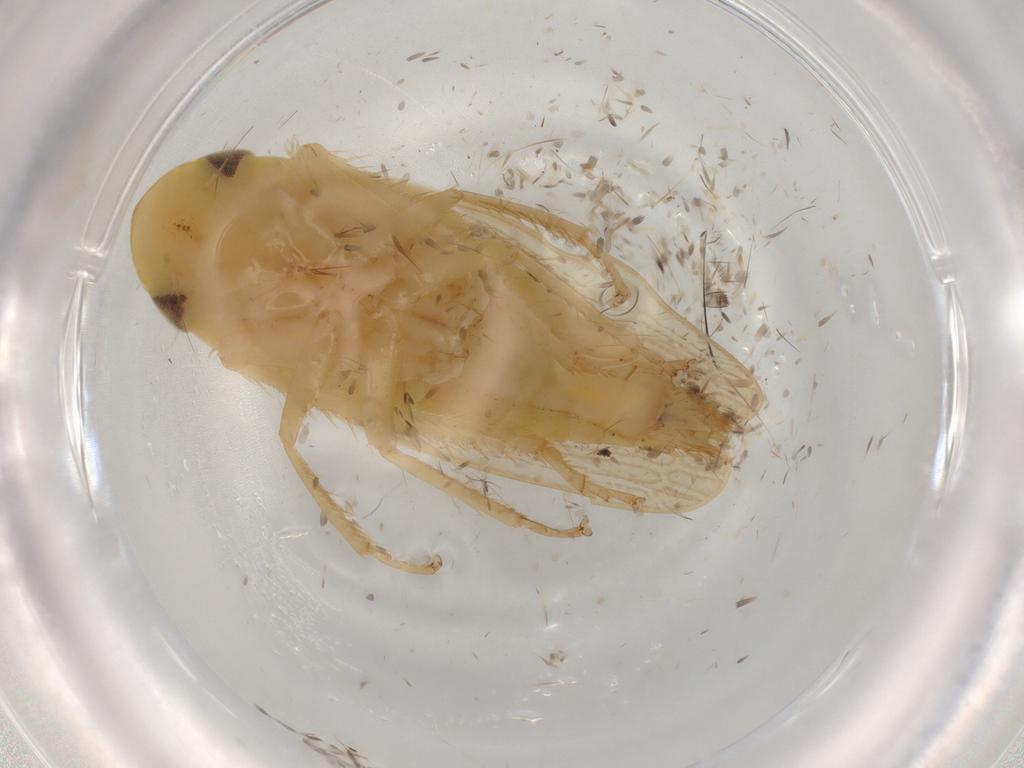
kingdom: Animalia
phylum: Arthropoda
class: Insecta
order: Hemiptera
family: Cicadellidae
